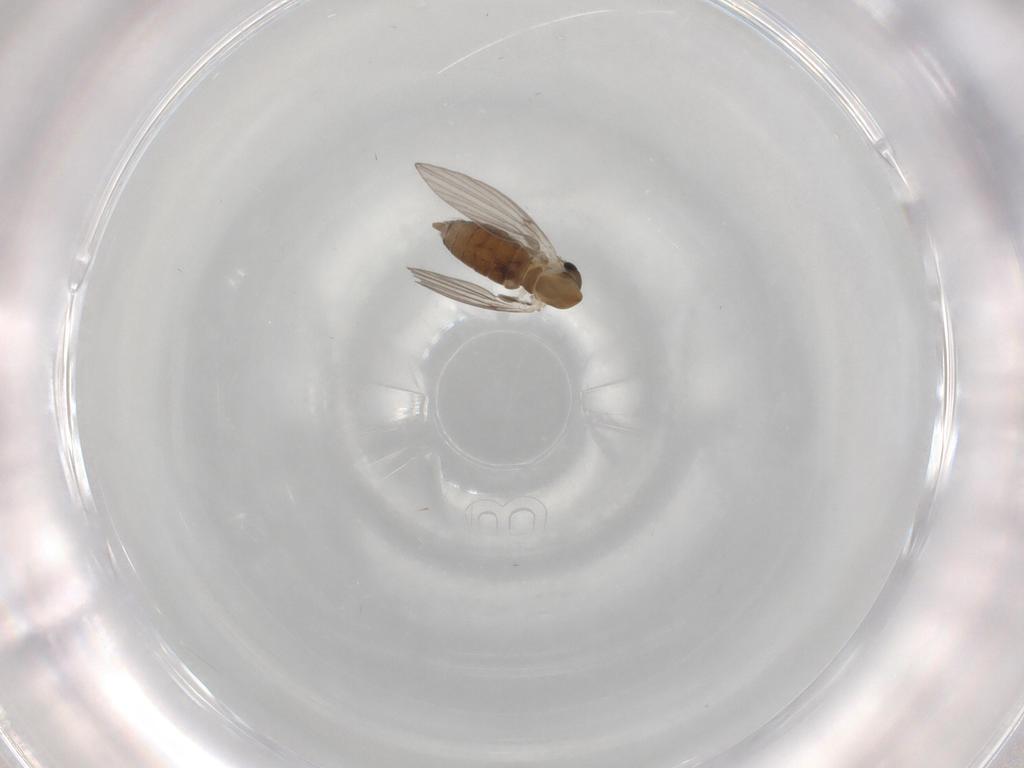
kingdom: Animalia
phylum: Arthropoda
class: Insecta
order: Diptera
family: Psychodidae
